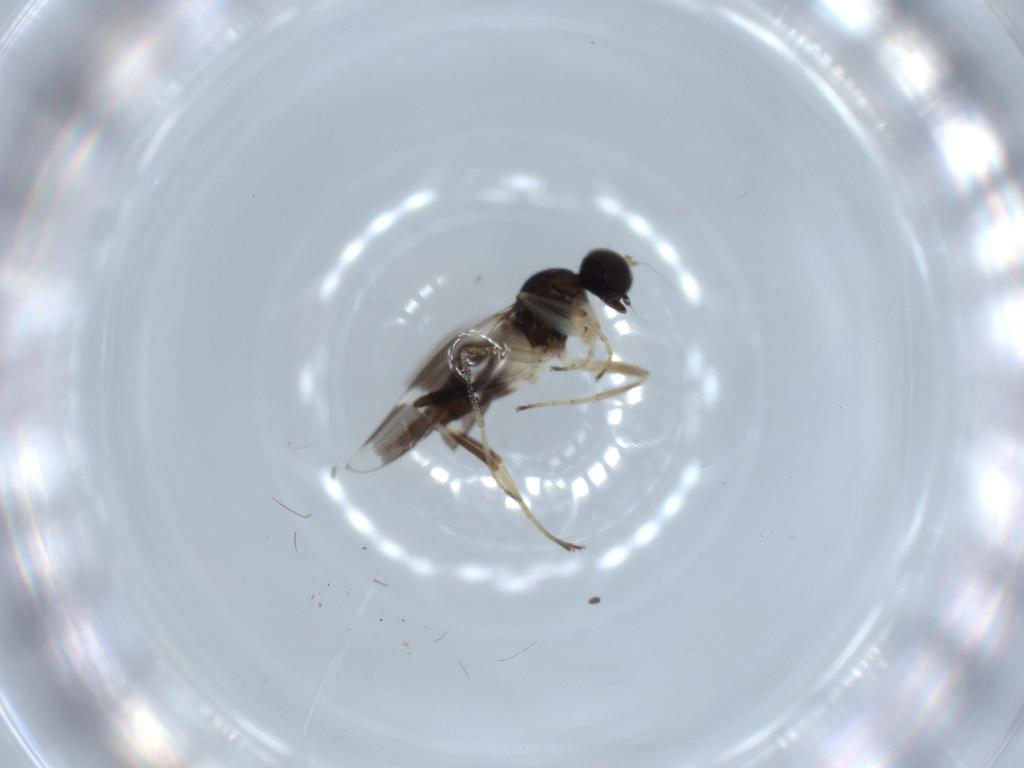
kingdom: Animalia
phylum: Arthropoda
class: Insecta
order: Diptera
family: Hybotidae
